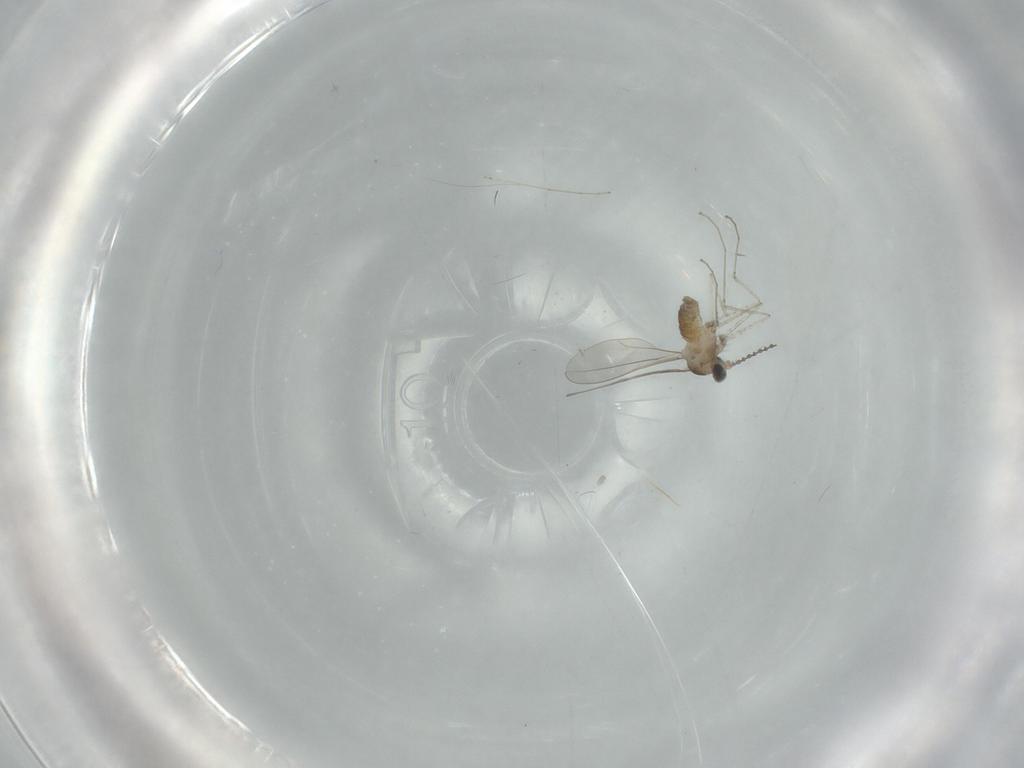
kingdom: Animalia
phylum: Arthropoda
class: Insecta
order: Diptera
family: Cecidomyiidae
